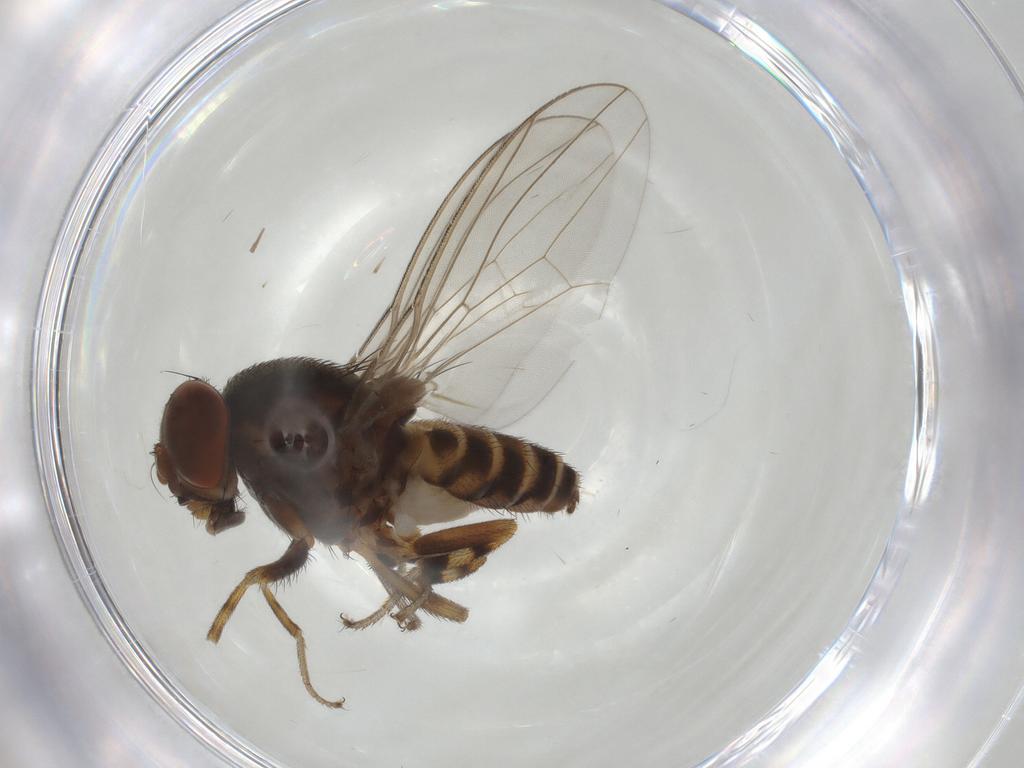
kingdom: Animalia
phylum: Arthropoda
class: Insecta
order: Diptera
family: Drosophilidae
